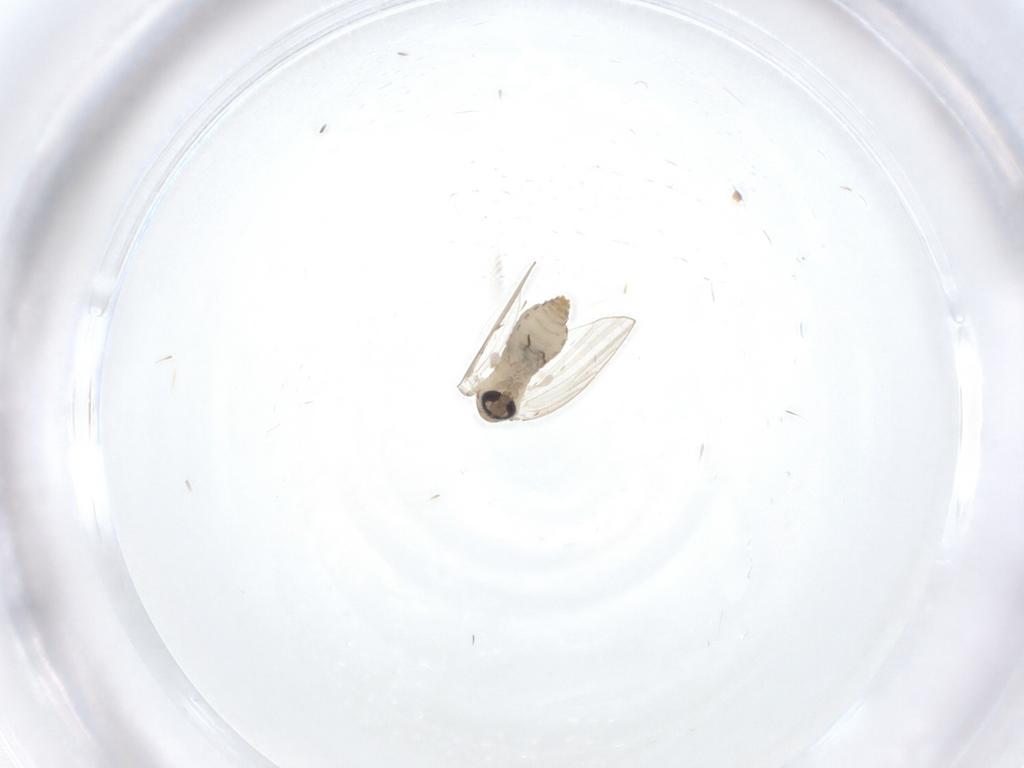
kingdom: Animalia
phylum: Arthropoda
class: Insecta
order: Diptera
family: Psychodidae
